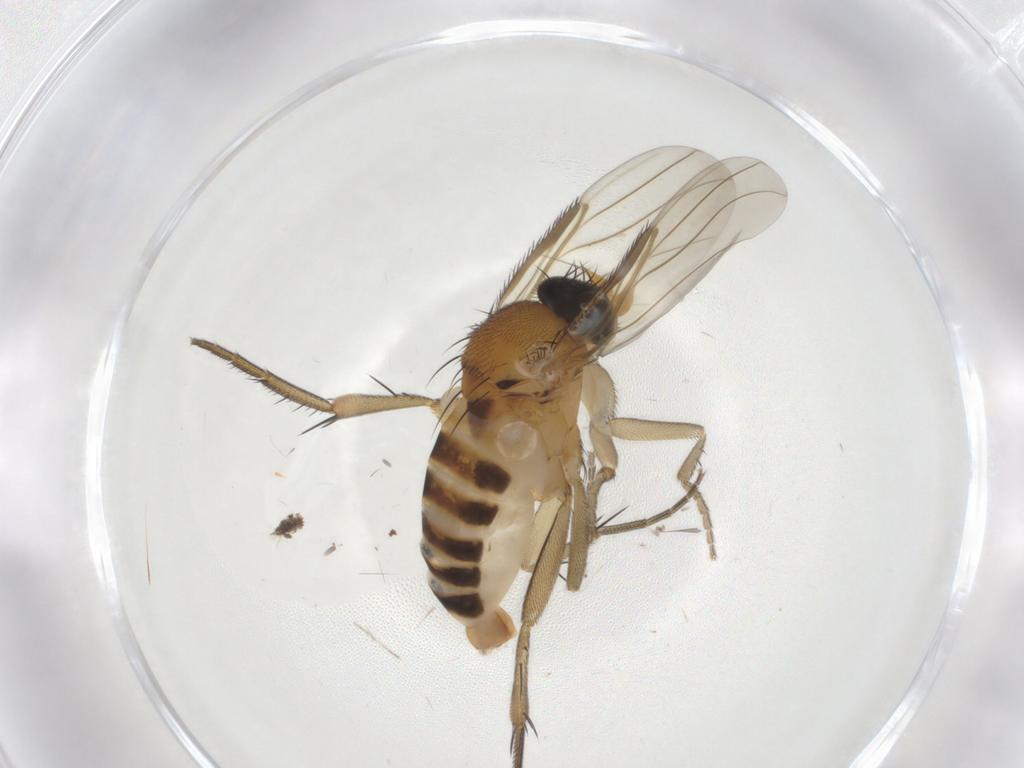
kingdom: Animalia
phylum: Arthropoda
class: Insecta
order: Diptera
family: Phoridae
